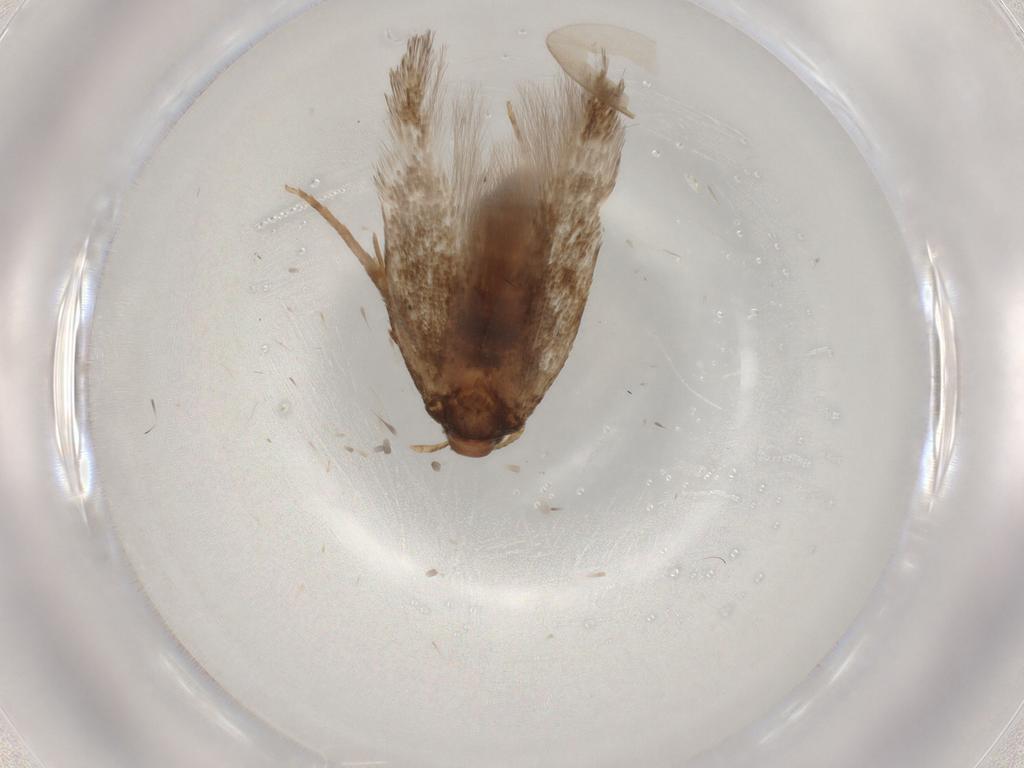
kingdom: Animalia
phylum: Arthropoda
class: Insecta
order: Lepidoptera
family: Cosmopterigidae
